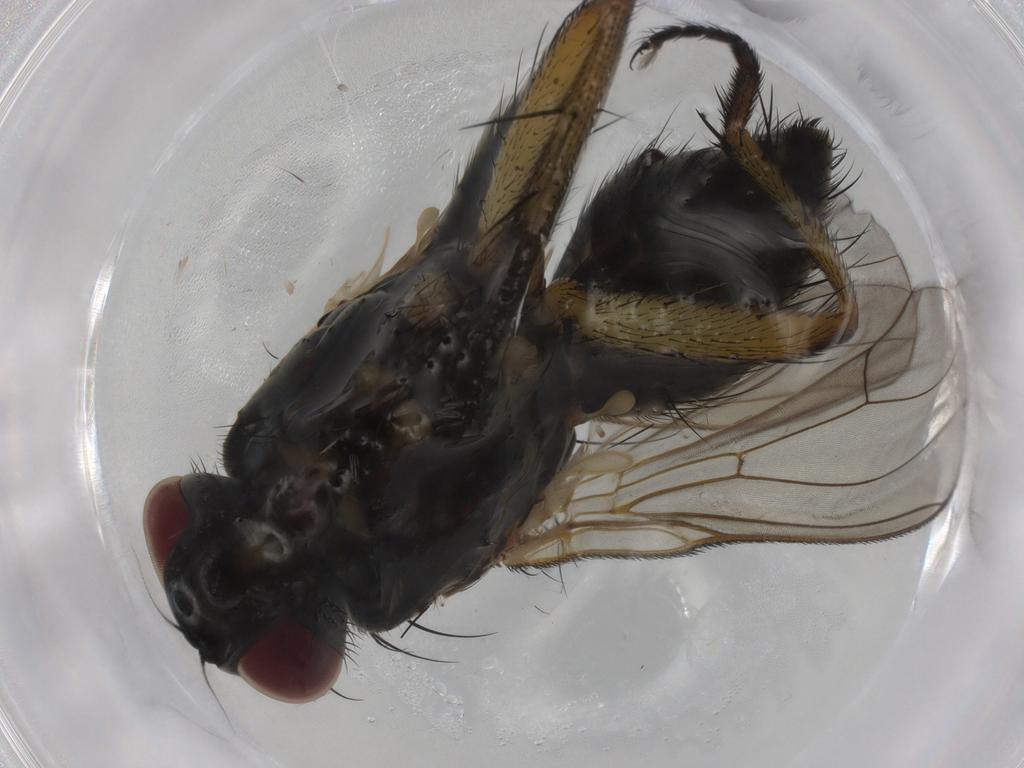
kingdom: Animalia
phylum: Arthropoda
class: Insecta
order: Diptera
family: Muscidae
